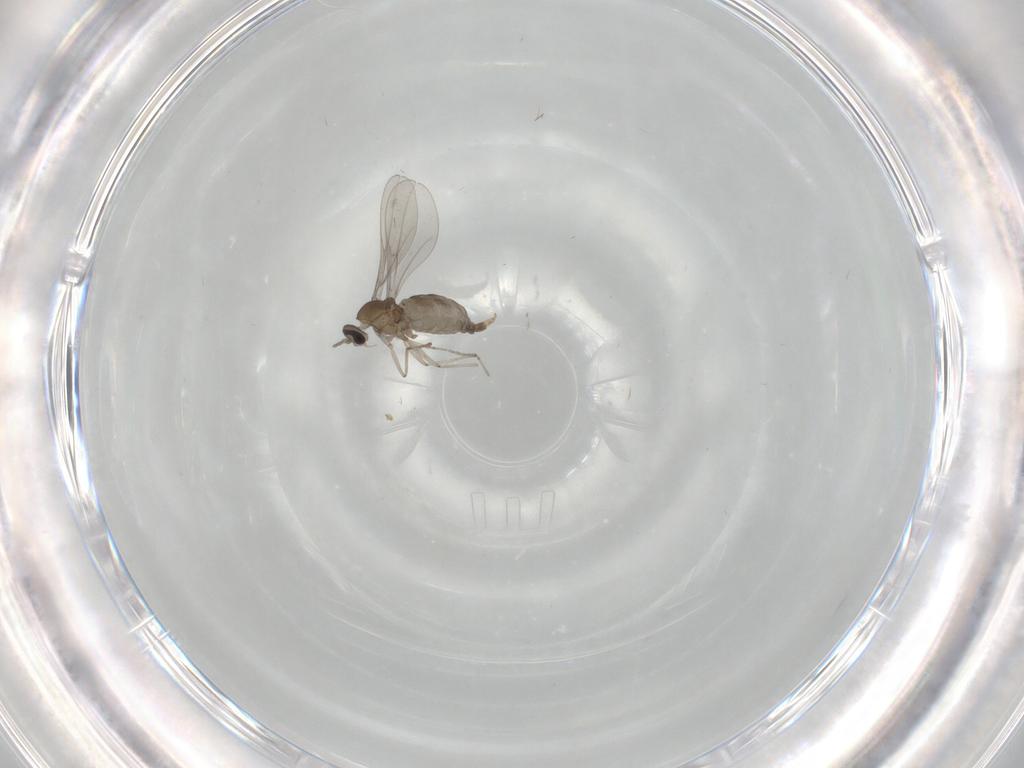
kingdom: Animalia
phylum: Arthropoda
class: Insecta
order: Diptera
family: Cecidomyiidae
